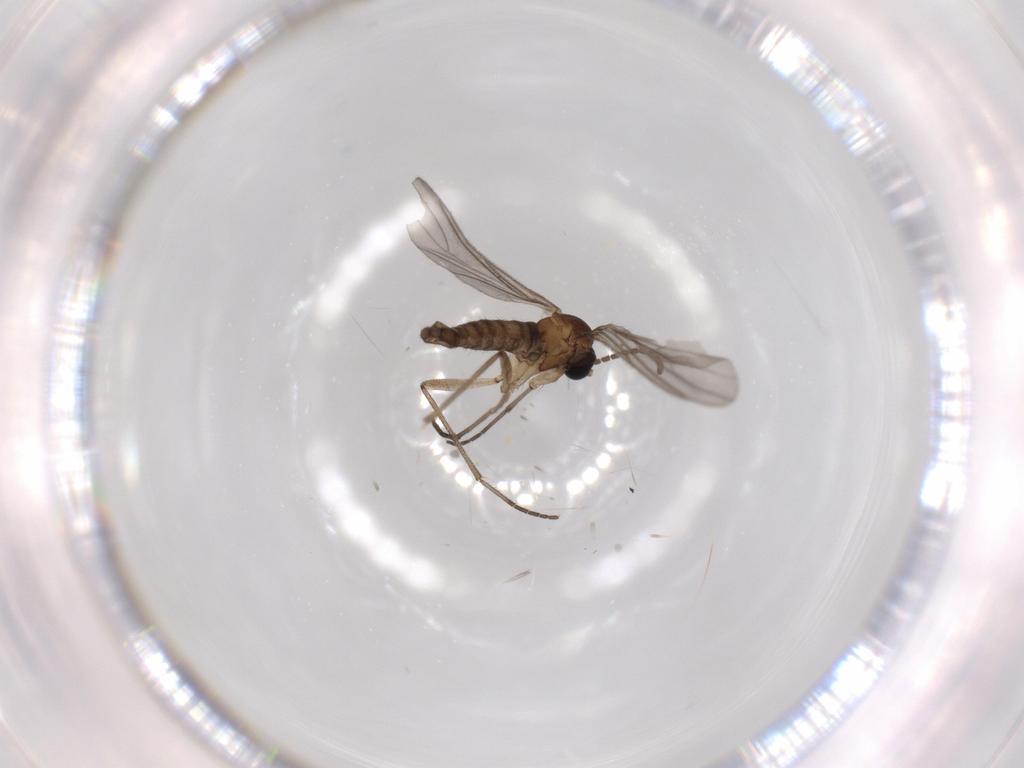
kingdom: Animalia
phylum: Arthropoda
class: Insecta
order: Diptera
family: Sciaridae
